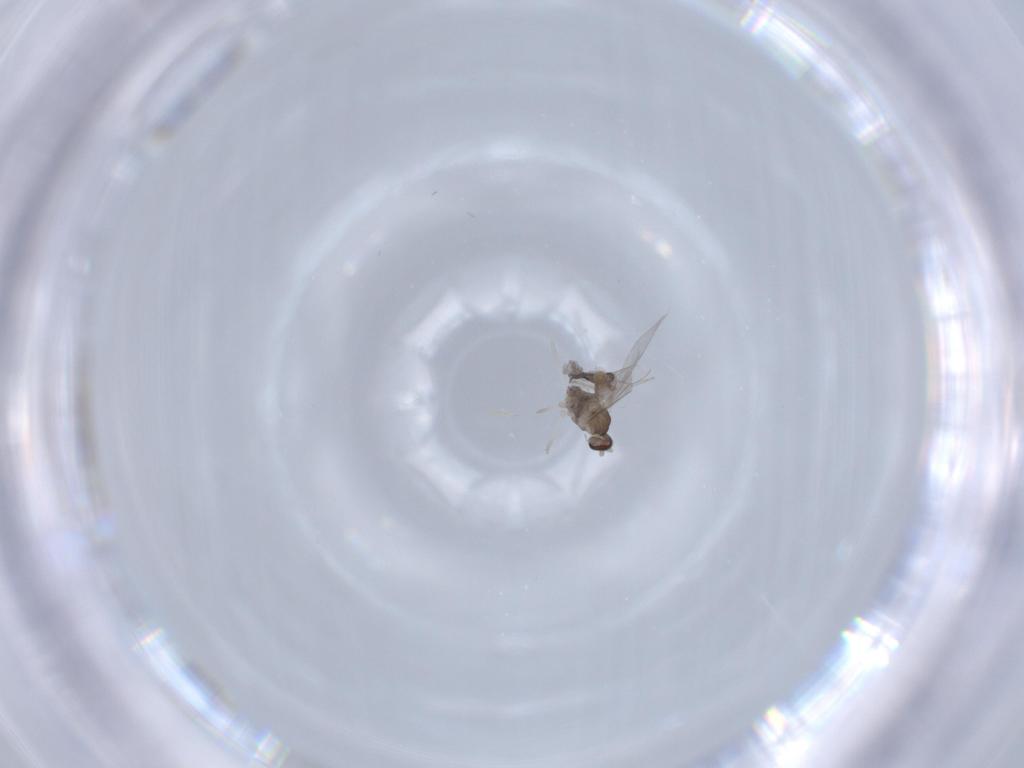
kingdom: Animalia
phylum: Arthropoda
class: Insecta
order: Diptera
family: Cecidomyiidae
